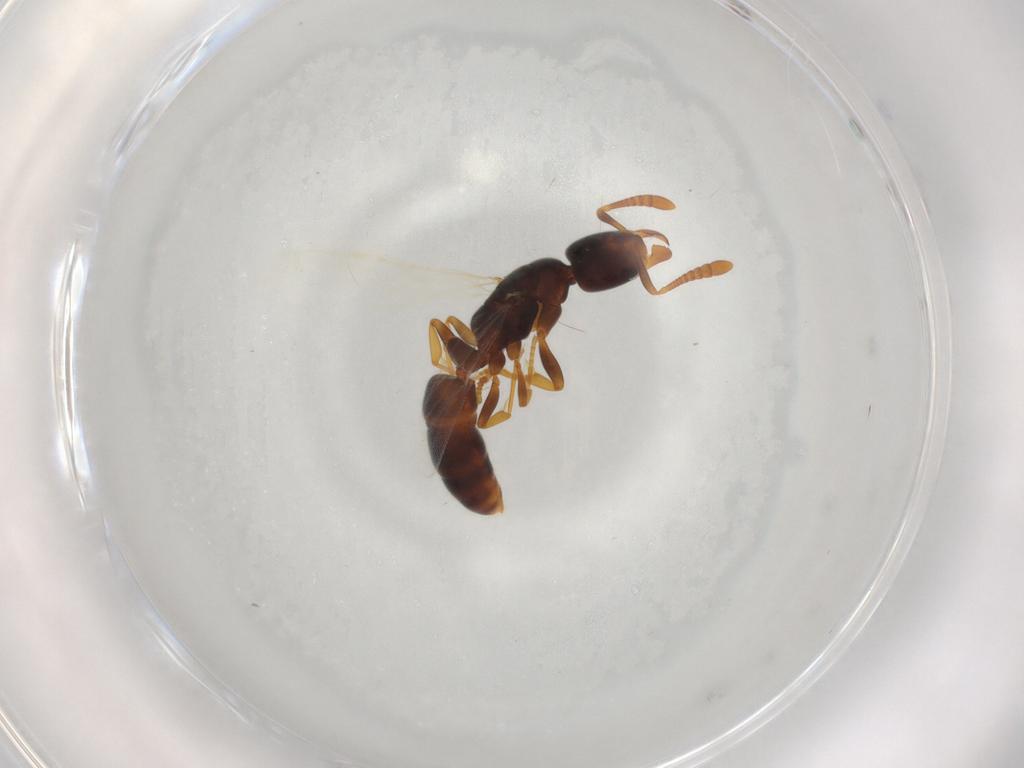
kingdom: Animalia
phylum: Arthropoda
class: Insecta
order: Hymenoptera
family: Formicidae
